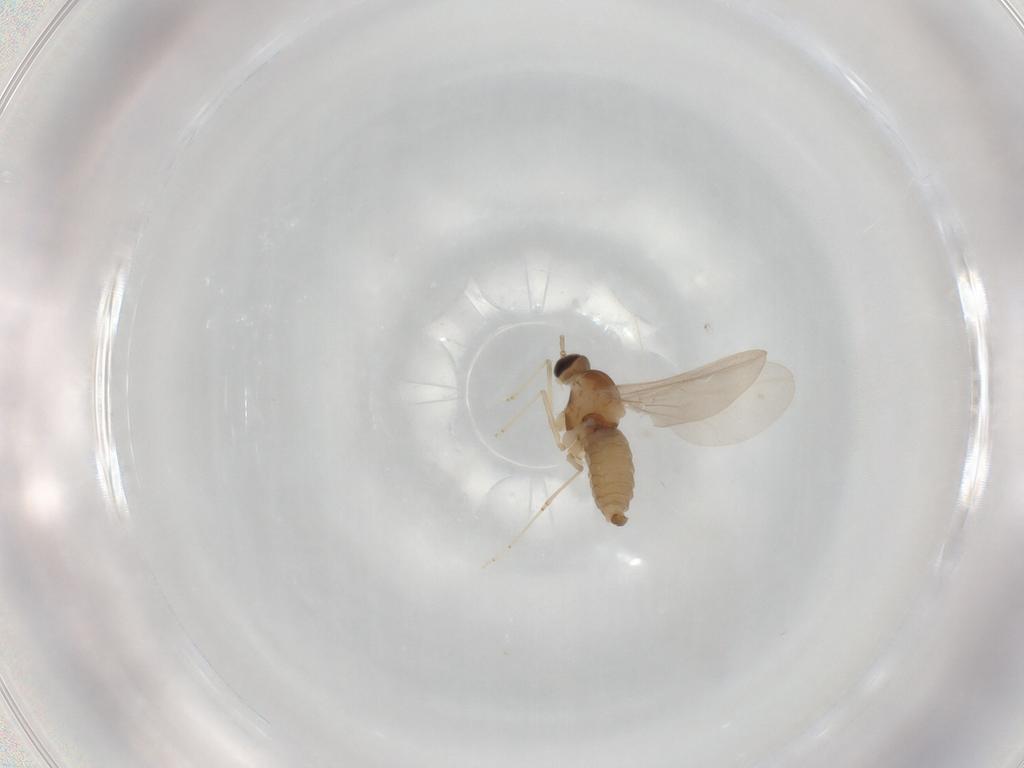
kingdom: Animalia
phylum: Arthropoda
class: Insecta
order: Diptera
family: Cecidomyiidae
